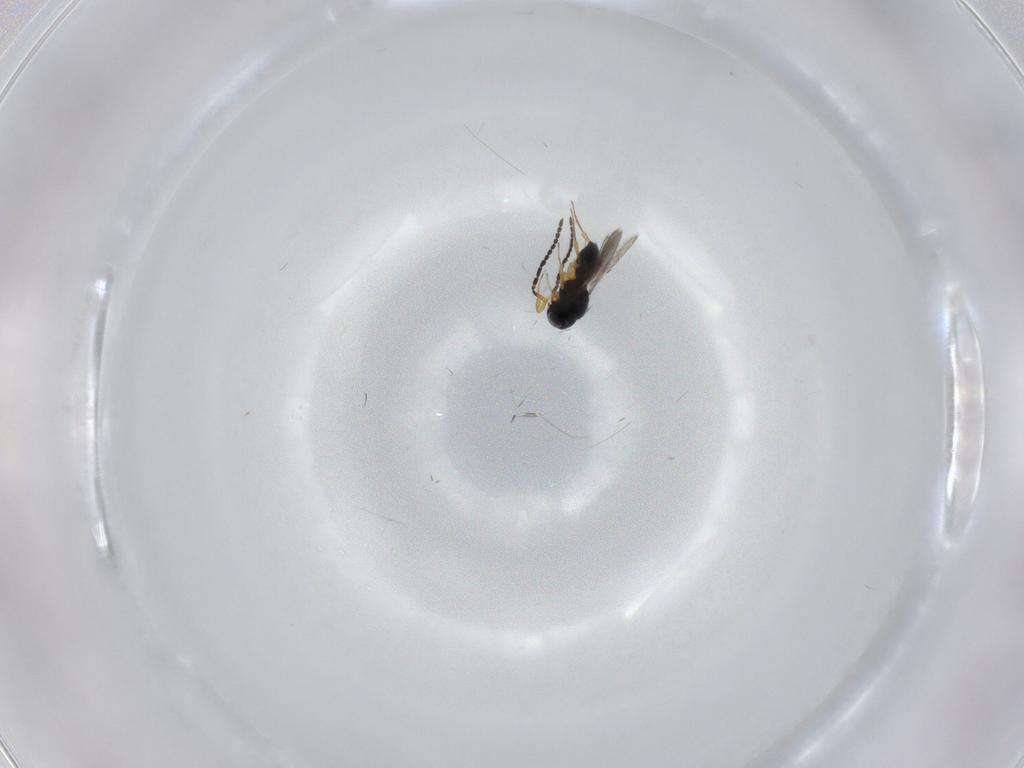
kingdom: Animalia
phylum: Arthropoda
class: Insecta
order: Hymenoptera
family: Scelionidae
